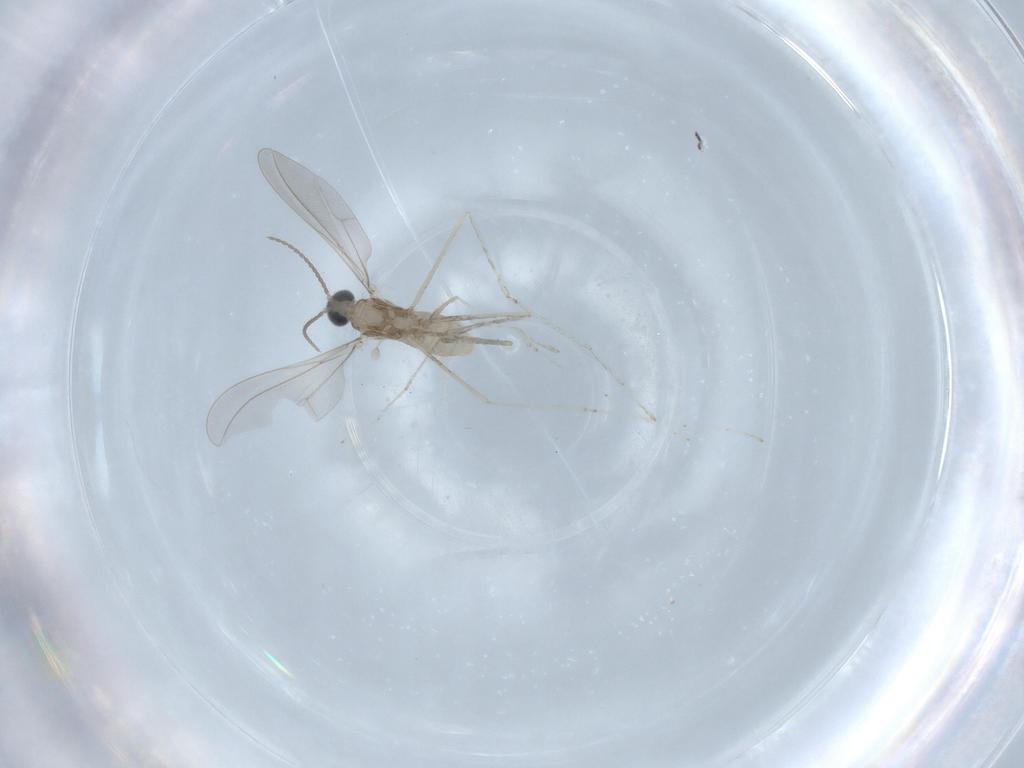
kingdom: Animalia
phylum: Arthropoda
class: Insecta
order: Diptera
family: Cecidomyiidae
